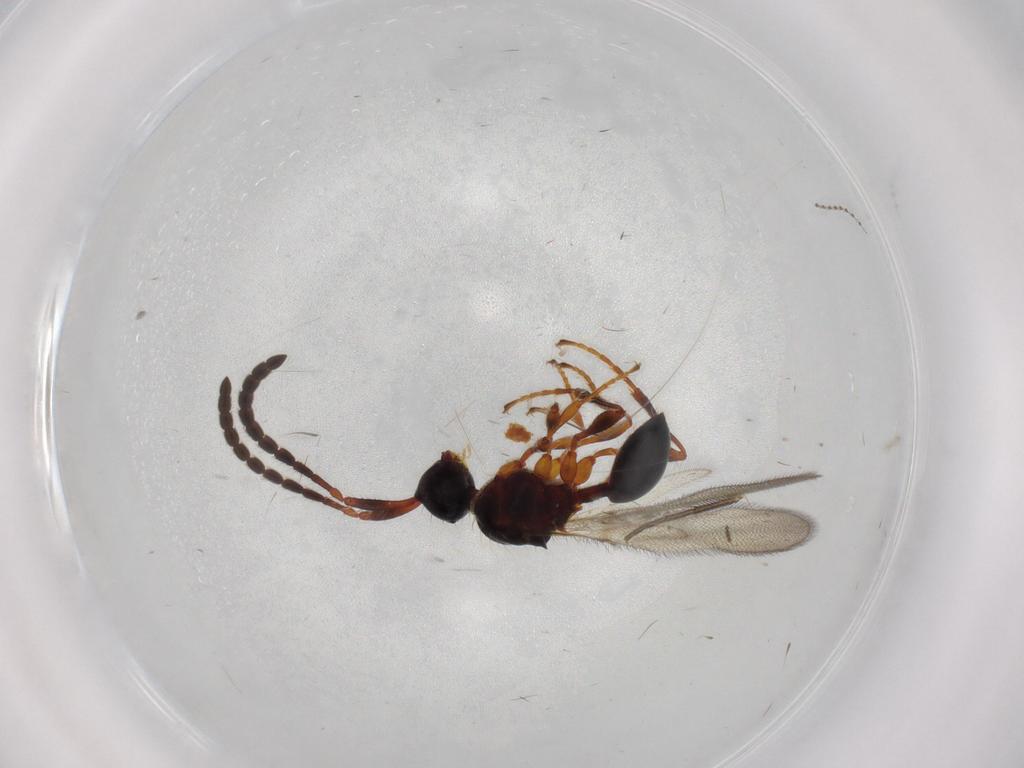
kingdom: Animalia
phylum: Arthropoda
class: Insecta
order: Hymenoptera
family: Diapriidae
